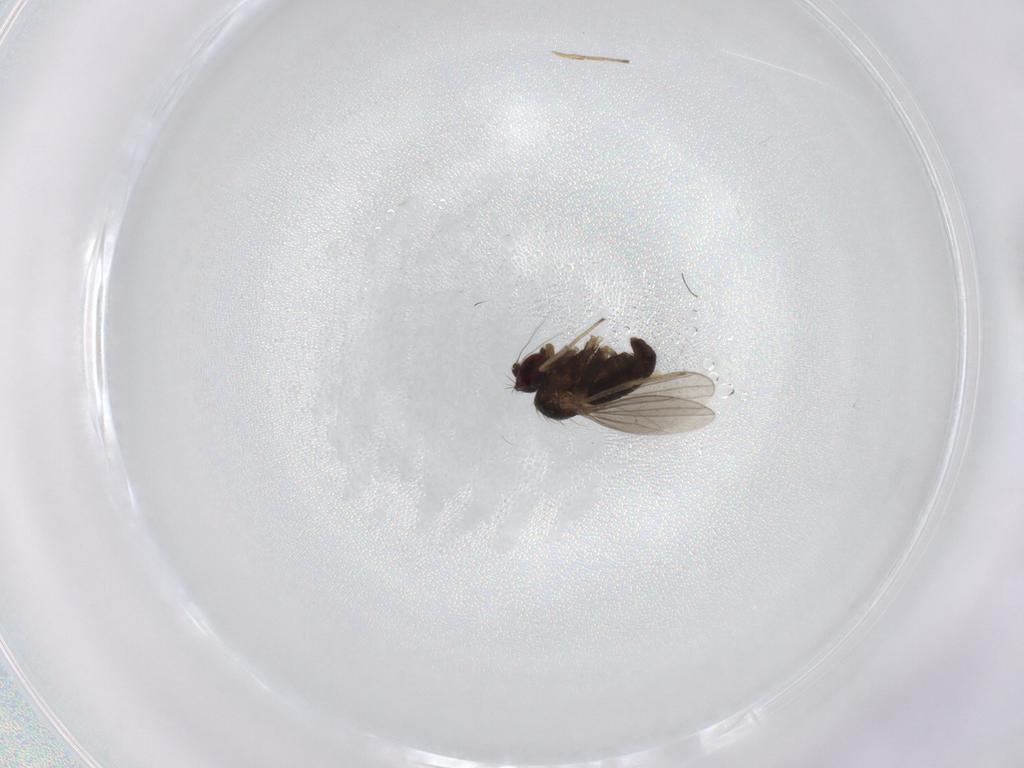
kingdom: Animalia
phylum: Arthropoda
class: Insecta
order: Diptera
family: Dolichopodidae
